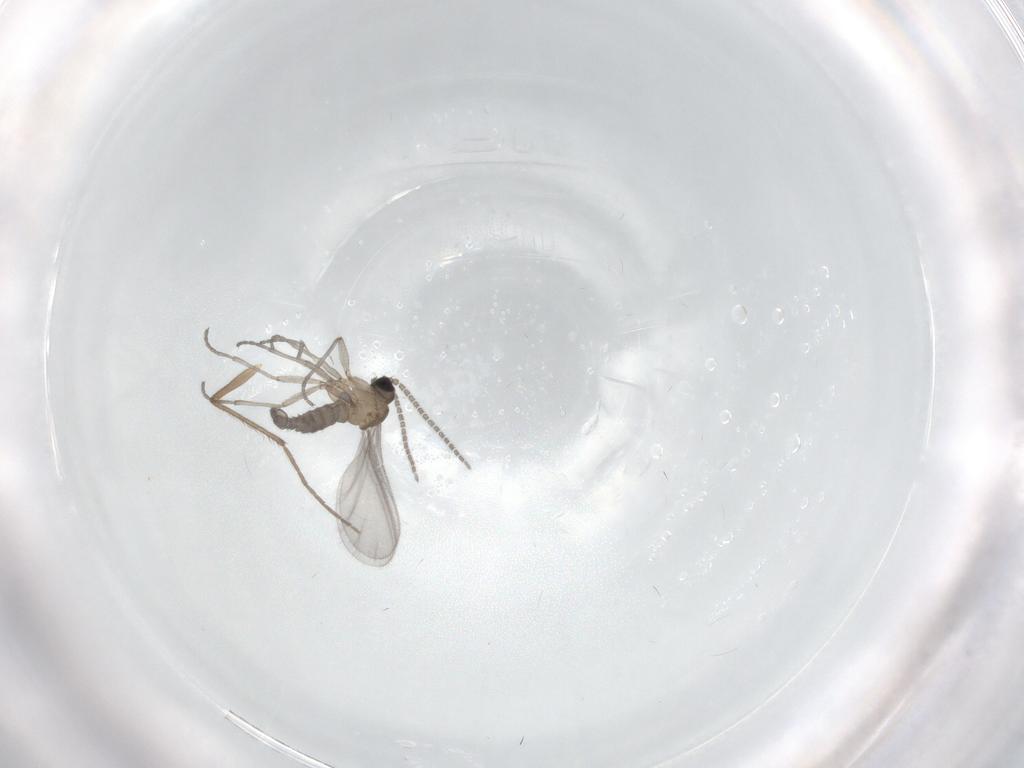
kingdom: Animalia
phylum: Arthropoda
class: Insecta
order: Diptera
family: Sciaridae
